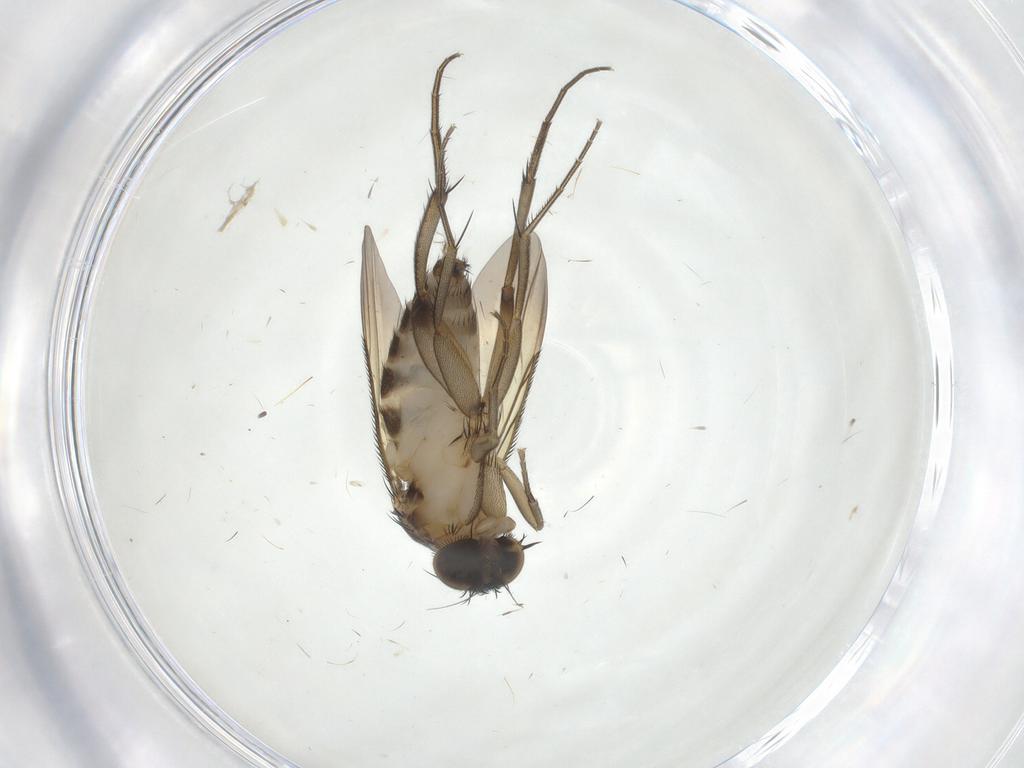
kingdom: Animalia
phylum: Arthropoda
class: Insecta
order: Diptera
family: Phoridae
